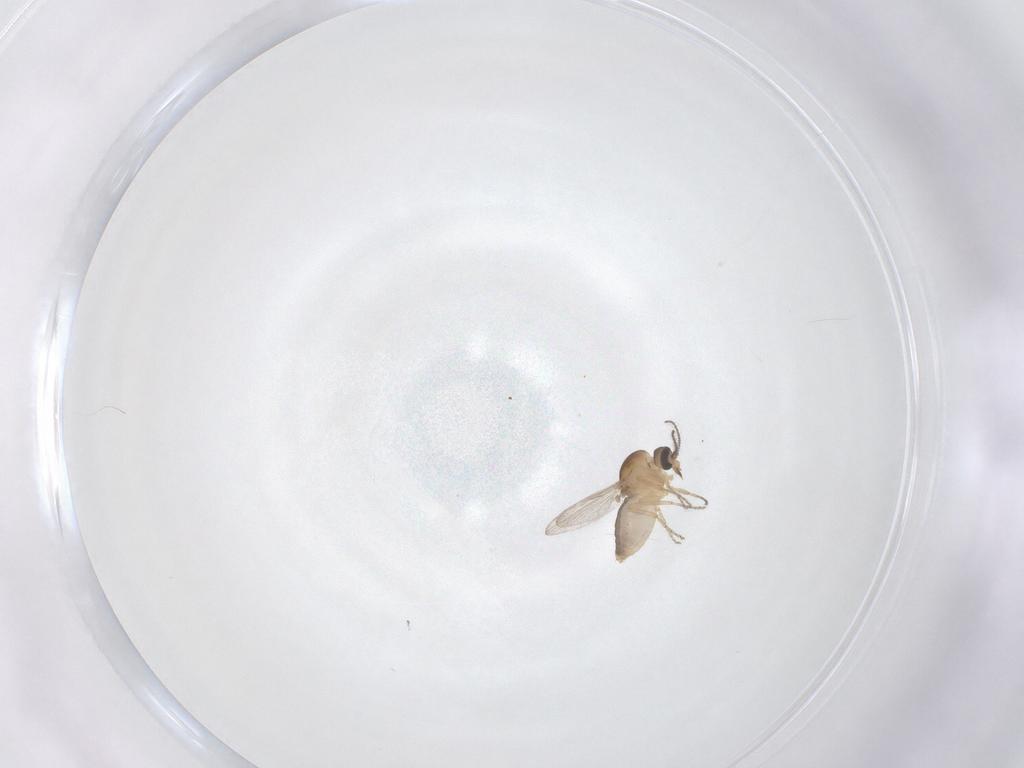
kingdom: Animalia
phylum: Arthropoda
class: Insecta
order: Diptera
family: Ceratopogonidae
